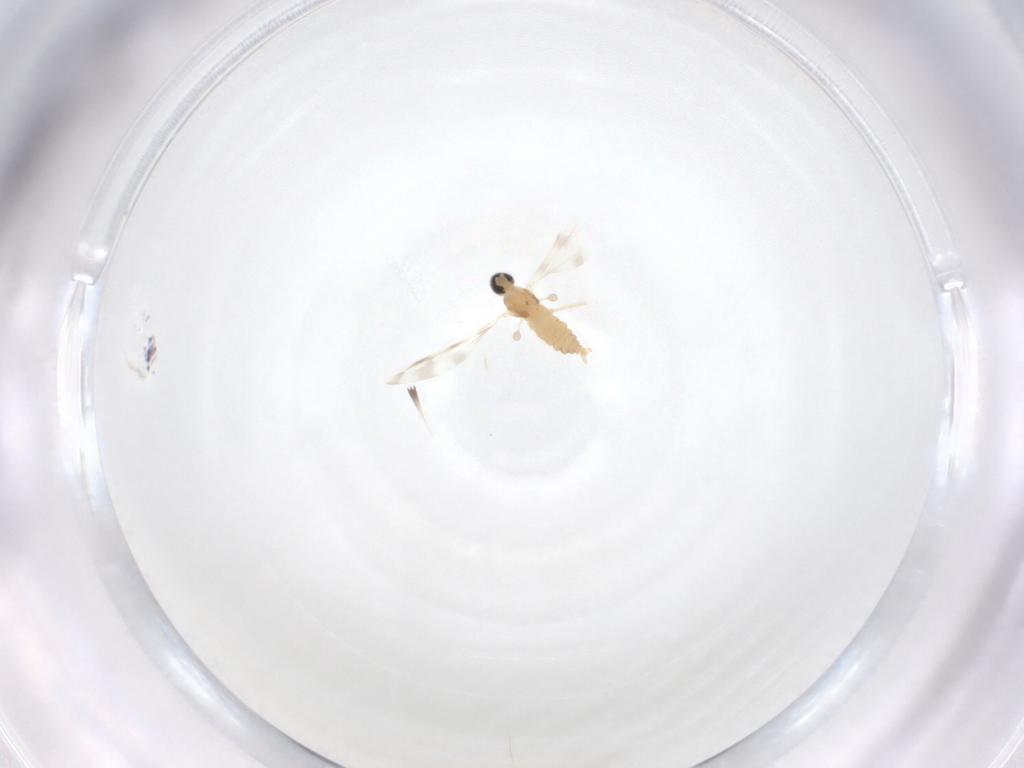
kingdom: Animalia
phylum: Arthropoda
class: Insecta
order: Diptera
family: Cecidomyiidae
